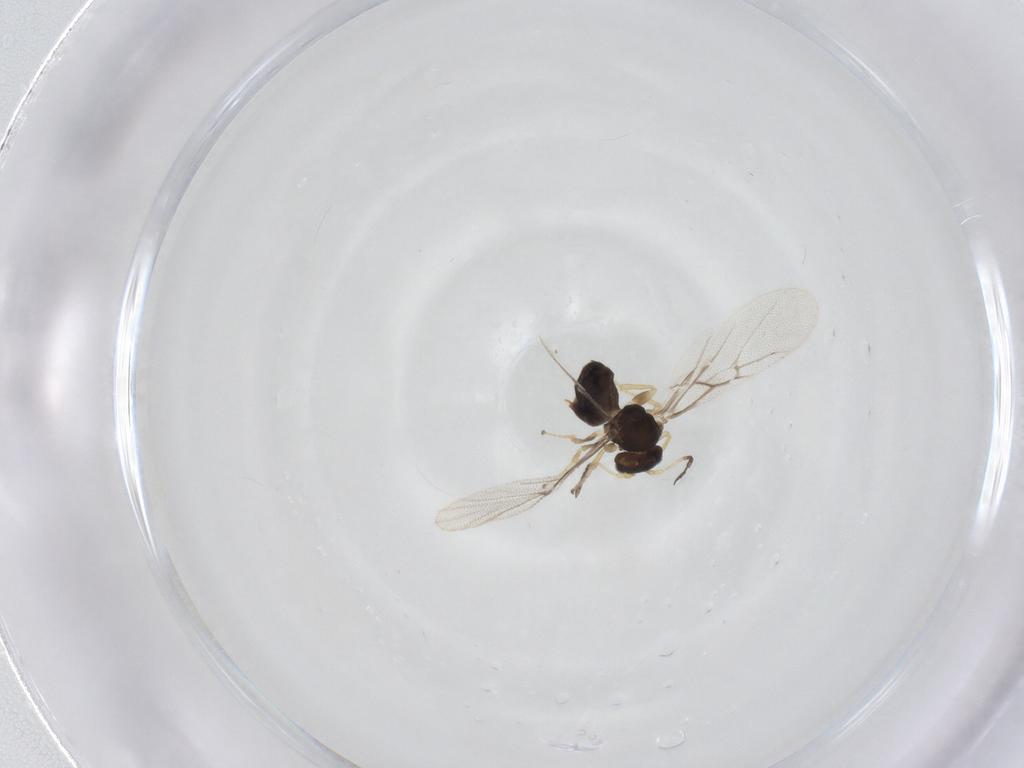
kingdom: Animalia
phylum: Arthropoda
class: Insecta
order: Hymenoptera
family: Cynipidae
